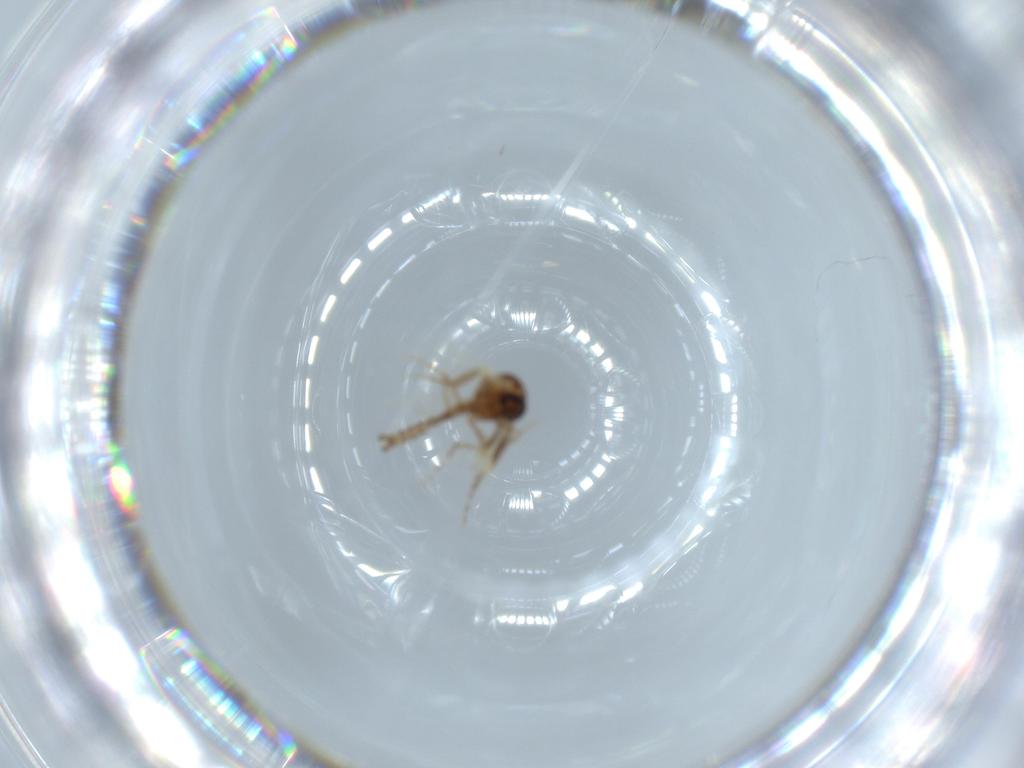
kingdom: Animalia
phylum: Arthropoda
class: Insecta
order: Diptera
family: Ceratopogonidae
